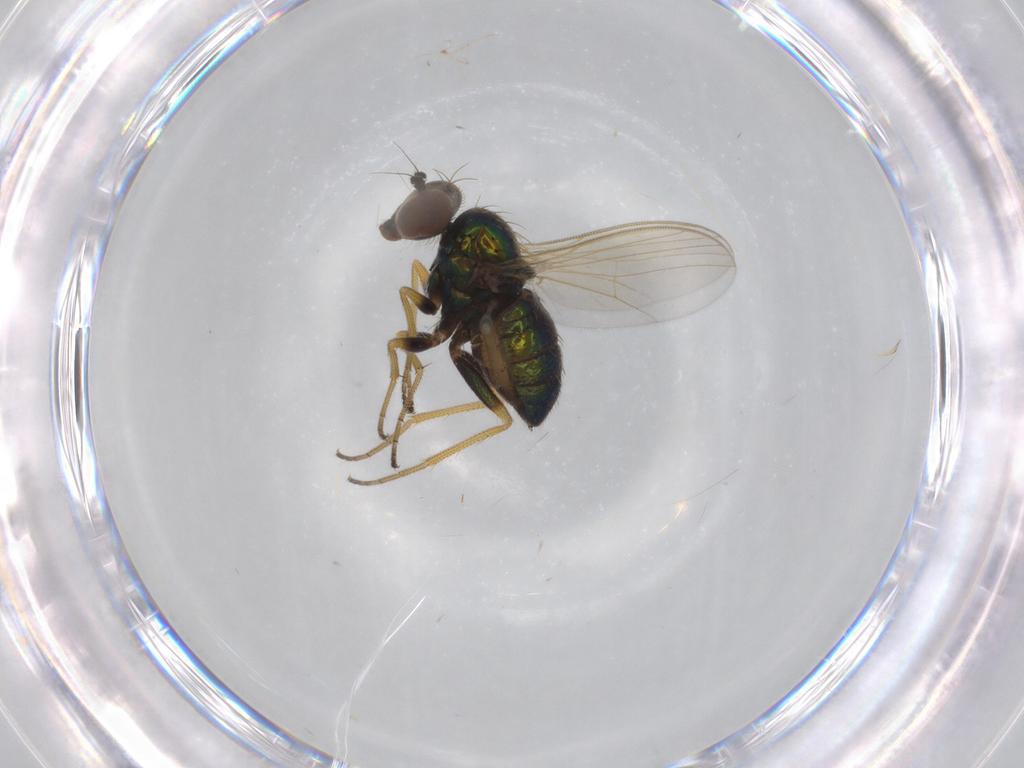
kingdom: Animalia
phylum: Arthropoda
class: Insecta
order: Diptera
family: Dolichopodidae
